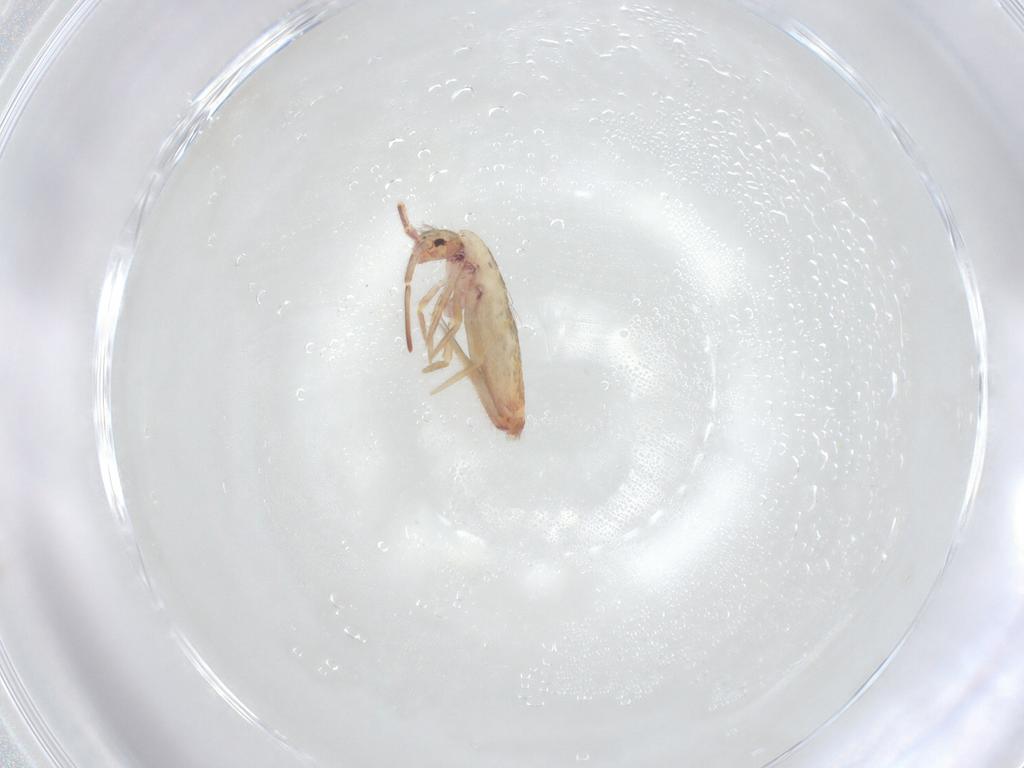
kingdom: Animalia
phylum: Arthropoda
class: Collembola
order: Entomobryomorpha
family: Entomobryidae
